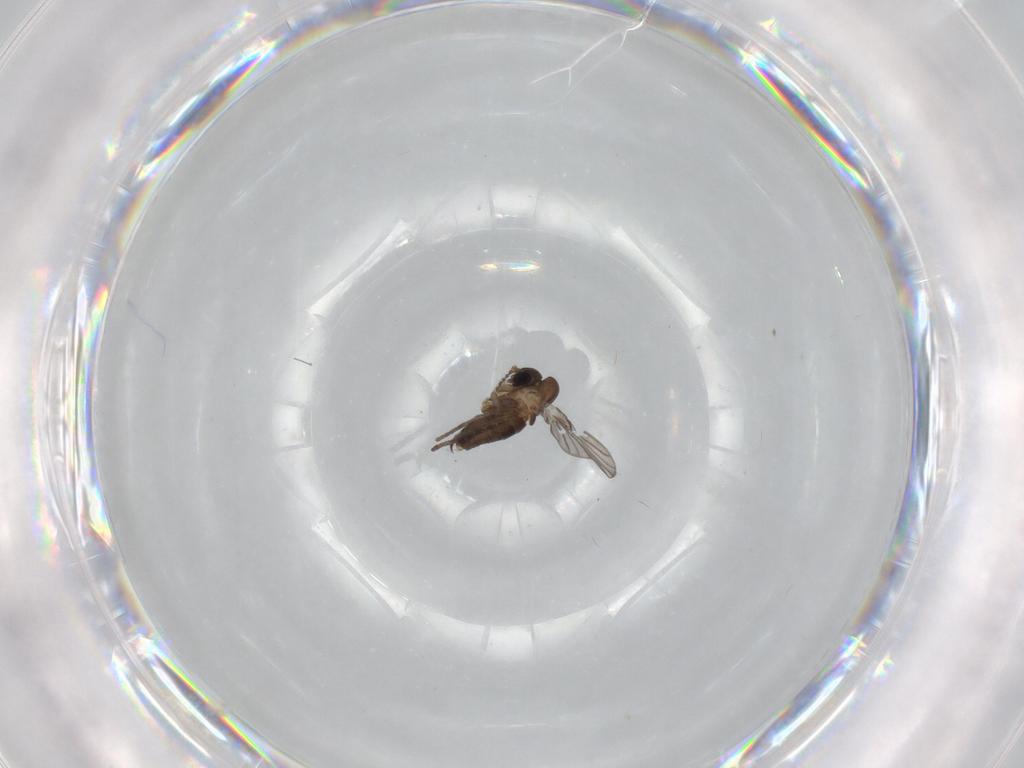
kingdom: Animalia
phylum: Arthropoda
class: Insecta
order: Diptera
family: Limoniidae
